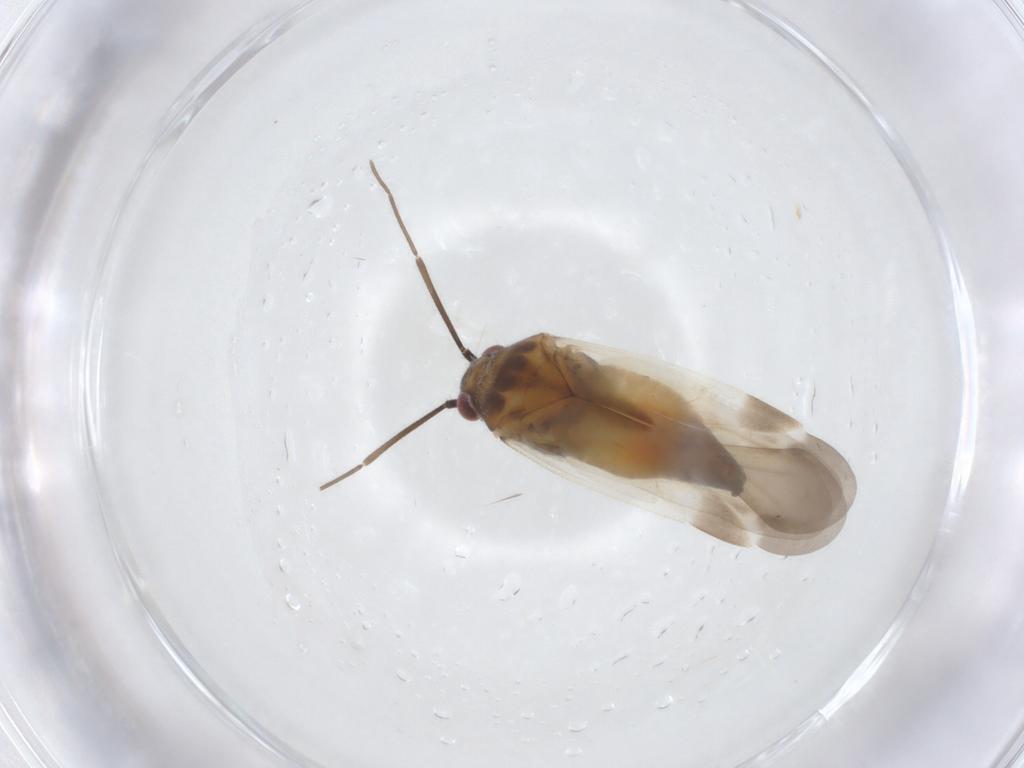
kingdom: Animalia
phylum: Arthropoda
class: Insecta
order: Hemiptera
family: Miridae
